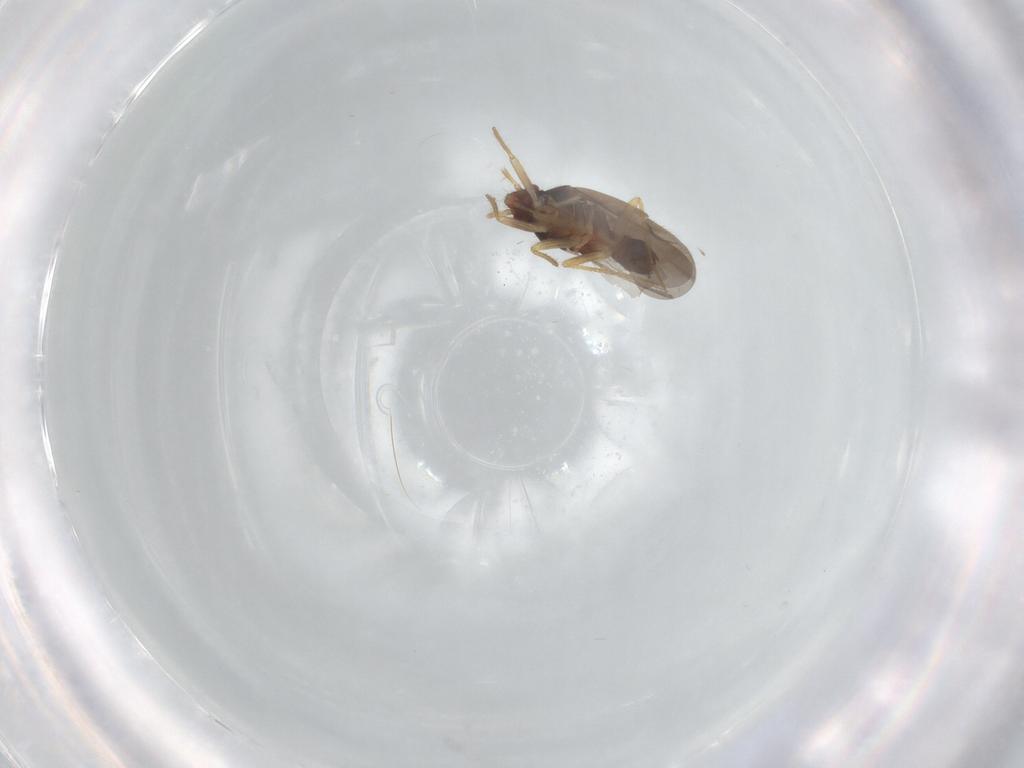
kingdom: Animalia
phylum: Arthropoda
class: Insecta
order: Hemiptera
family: Ceratocombidae
